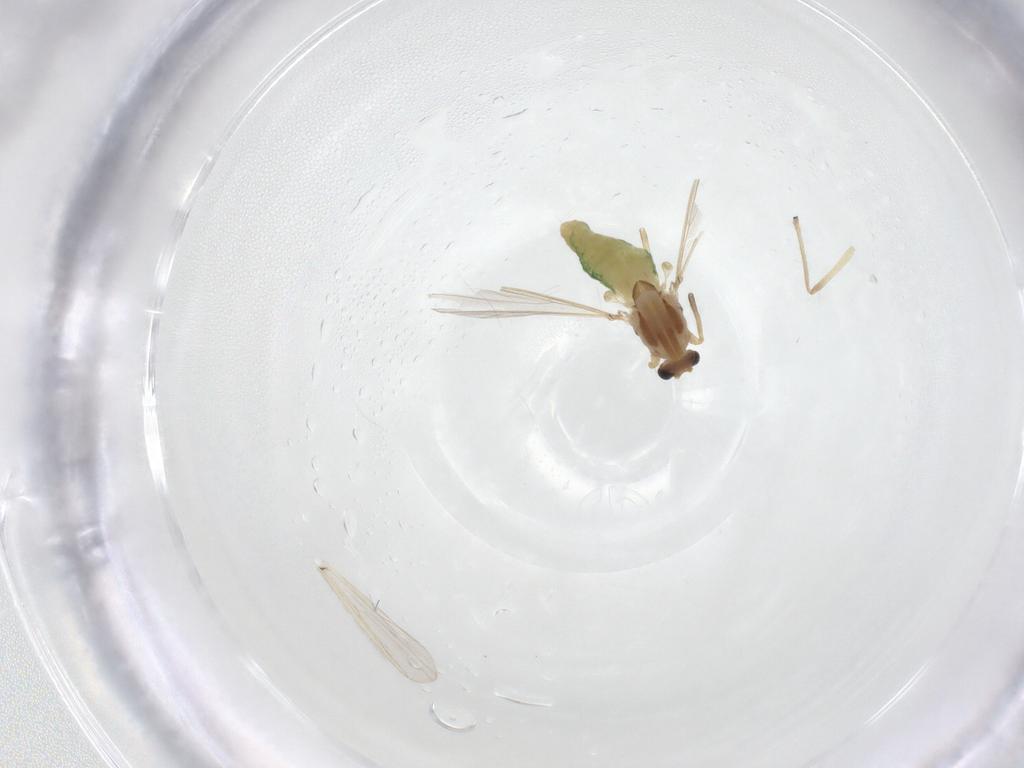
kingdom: Animalia
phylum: Arthropoda
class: Insecta
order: Diptera
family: Chironomidae
